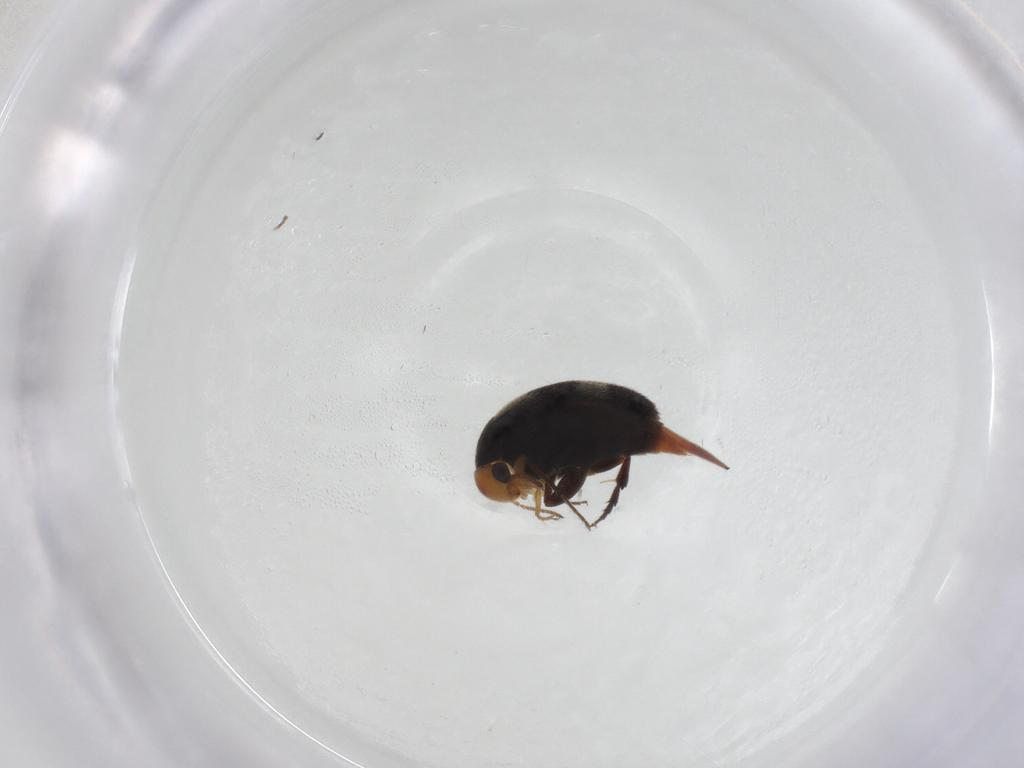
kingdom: Animalia
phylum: Arthropoda
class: Insecta
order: Coleoptera
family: Mordellidae
